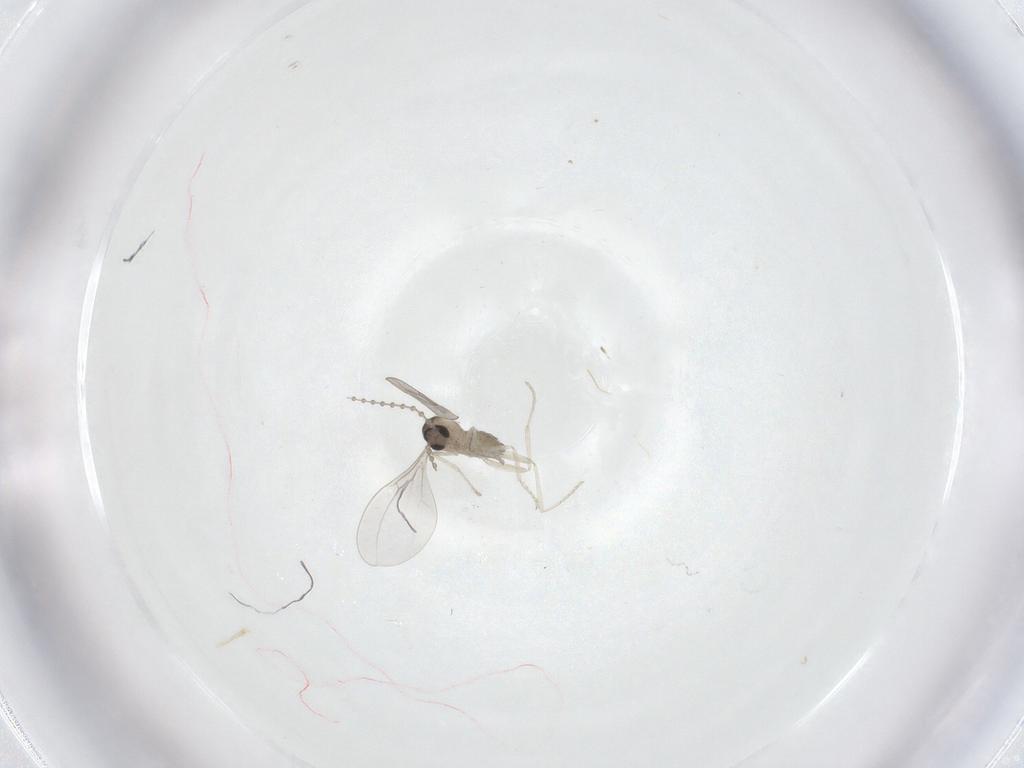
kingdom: Animalia
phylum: Arthropoda
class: Insecta
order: Diptera
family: Cecidomyiidae
